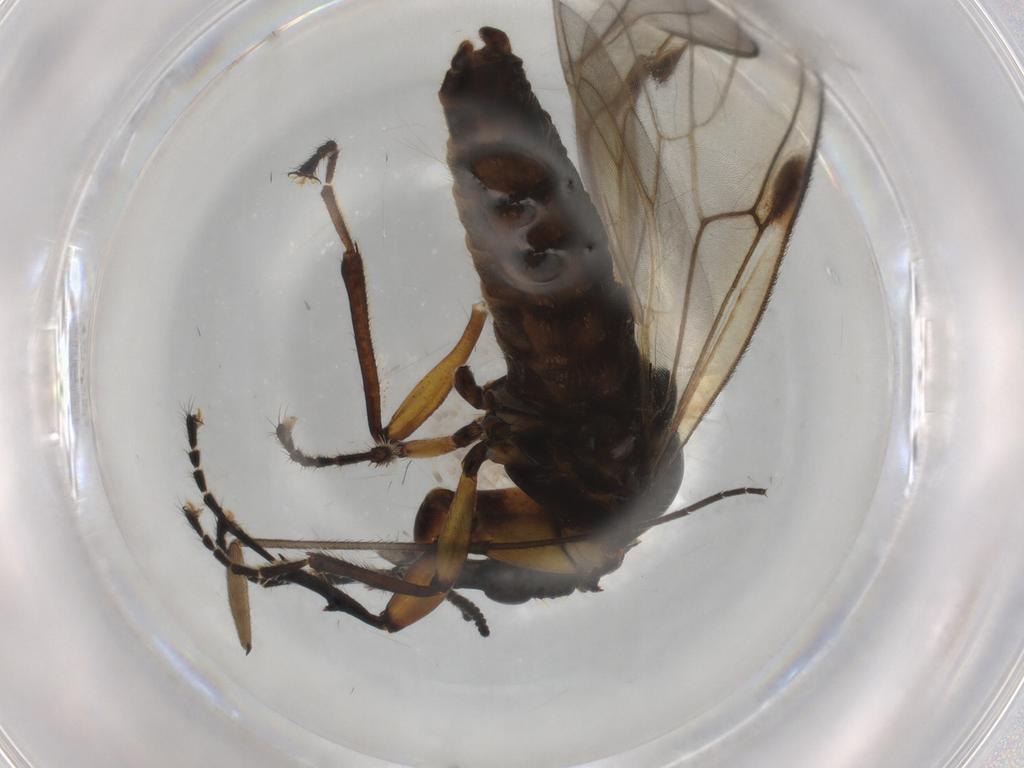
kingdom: Animalia
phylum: Arthropoda
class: Insecta
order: Diptera
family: Bibionidae
